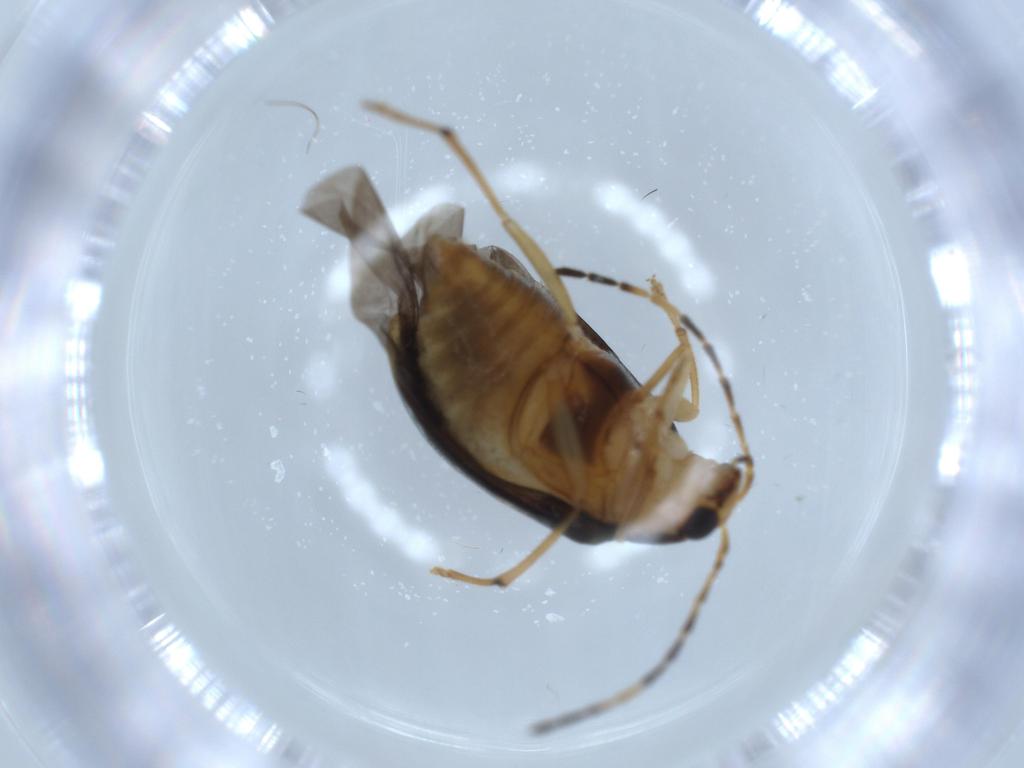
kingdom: Animalia
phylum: Arthropoda
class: Insecta
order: Coleoptera
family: Chrysomelidae
